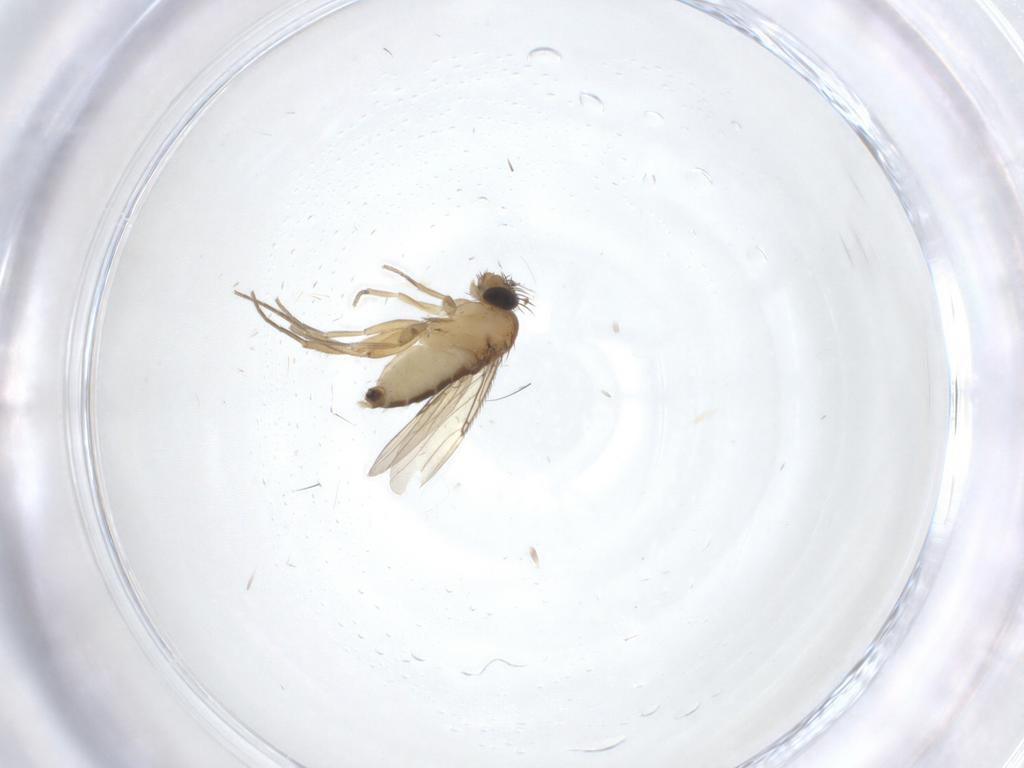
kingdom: Animalia
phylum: Arthropoda
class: Insecta
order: Diptera
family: Phoridae
